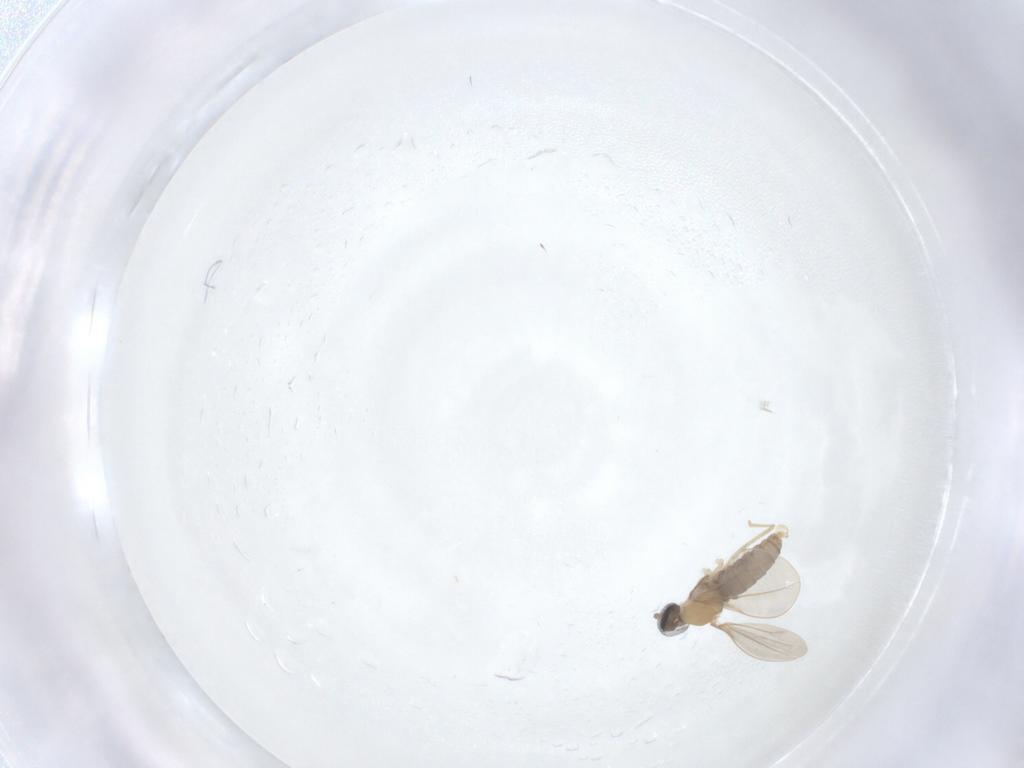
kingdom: Animalia
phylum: Arthropoda
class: Insecta
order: Diptera
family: Cecidomyiidae
